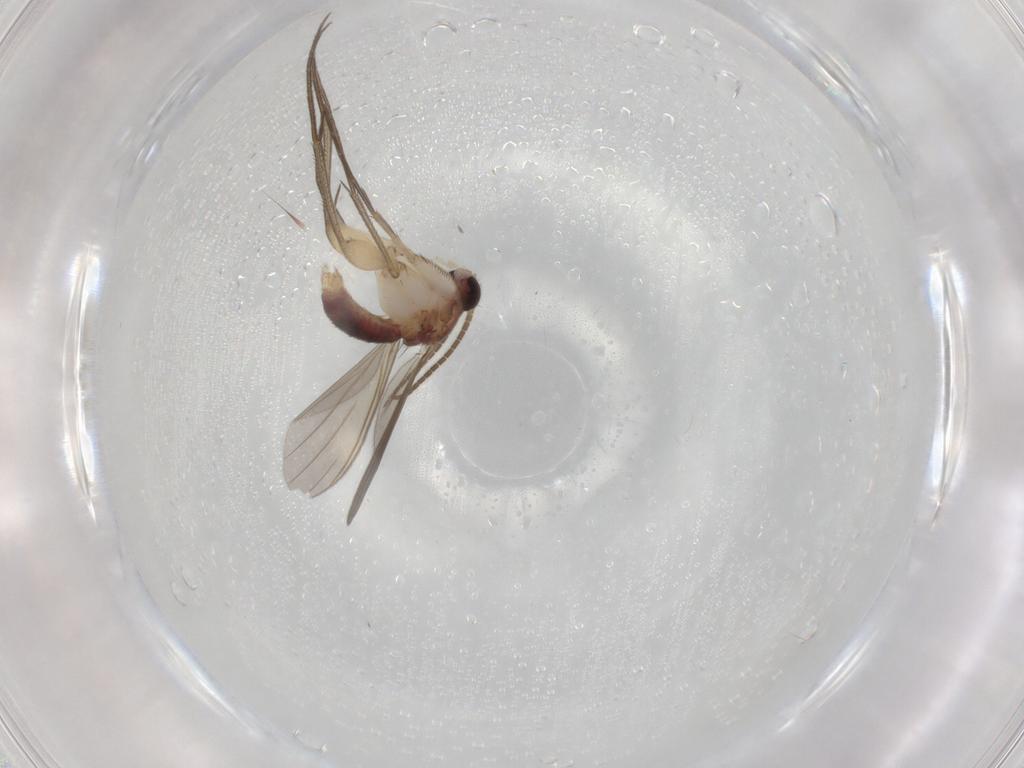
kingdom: Animalia
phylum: Arthropoda
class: Insecta
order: Diptera
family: Mycetophilidae
